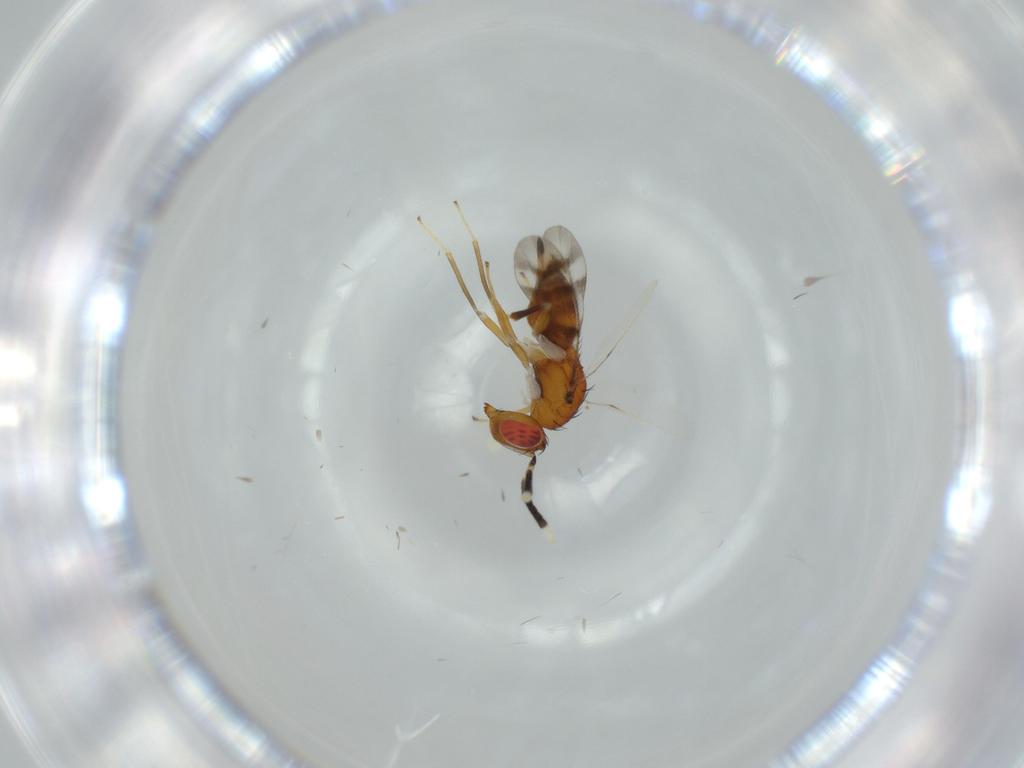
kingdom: Animalia
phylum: Arthropoda
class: Insecta
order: Hymenoptera
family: Diparidae
